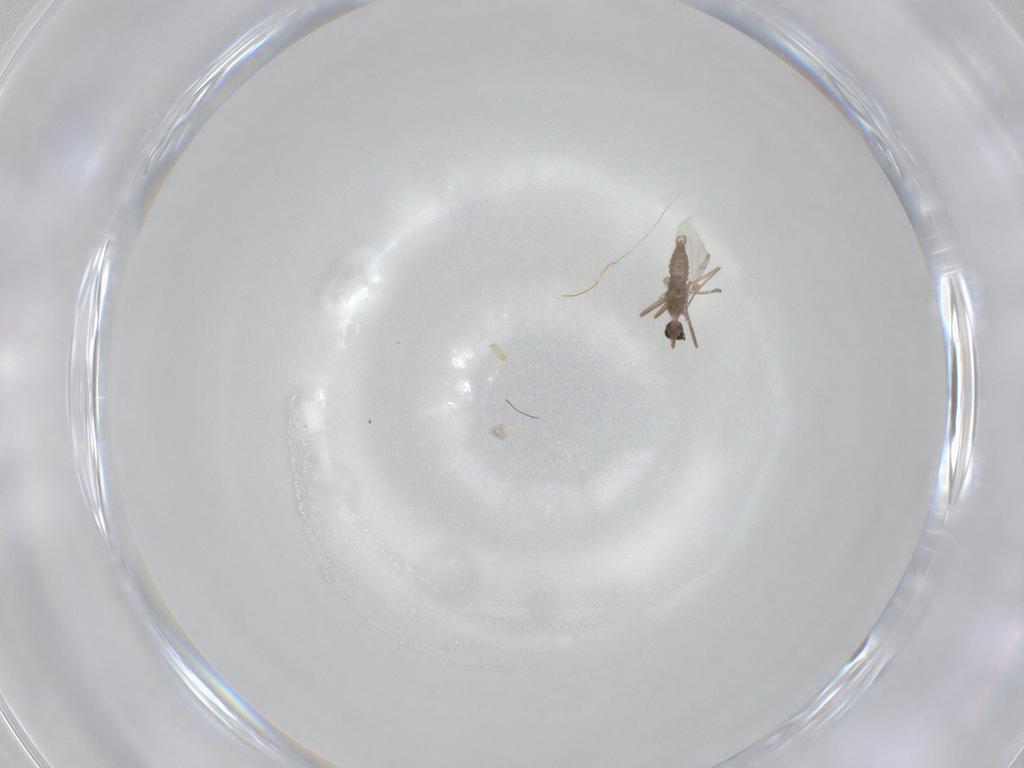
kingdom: Animalia
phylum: Arthropoda
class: Insecta
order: Diptera
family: Cecidomyiidae
